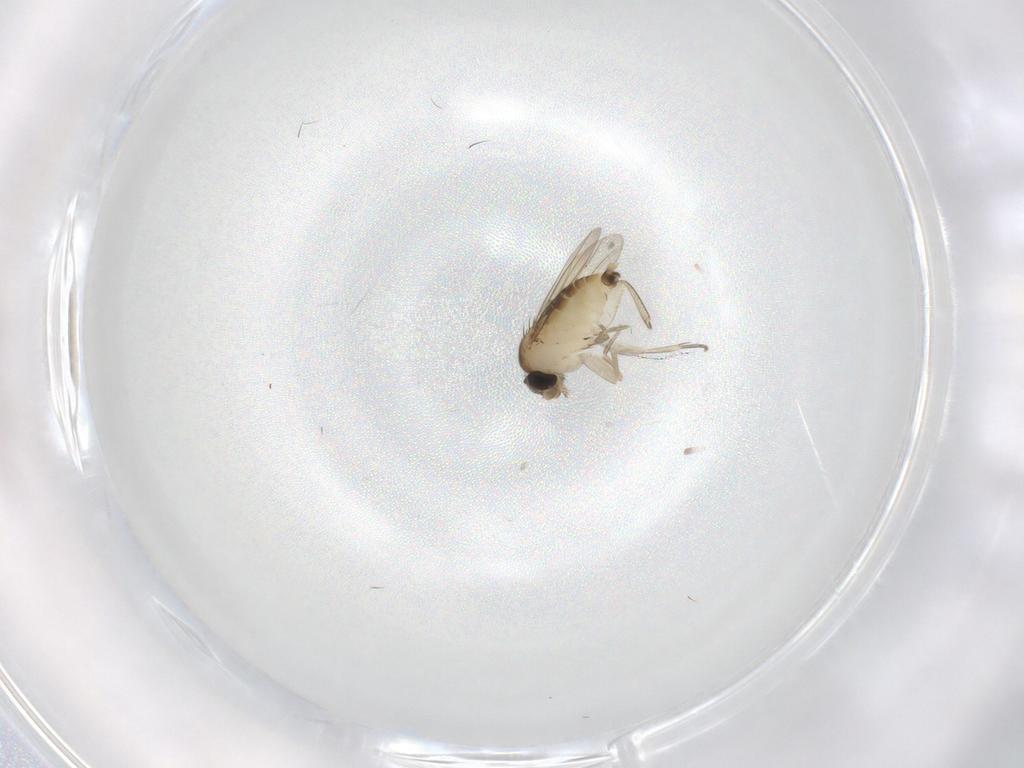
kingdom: Animalia
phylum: Arthropoda
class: Insecta
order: Diptera
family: Phoridae
